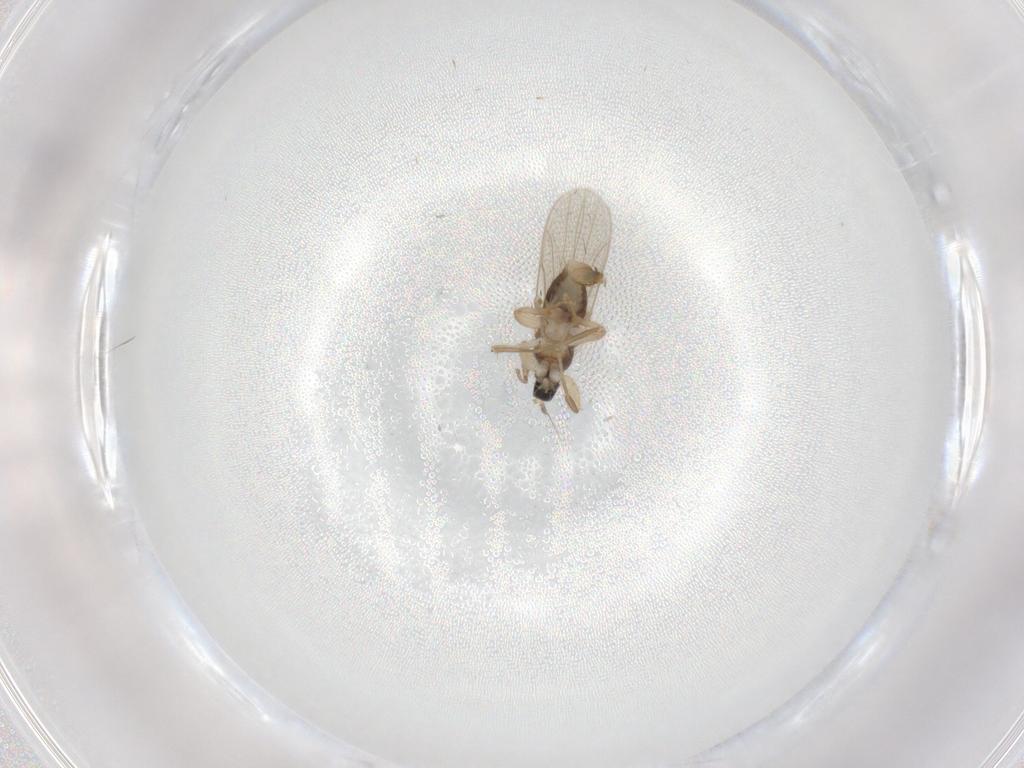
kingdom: Animalia
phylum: Arthropoda
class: Insecta
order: Diptera
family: Hybotidae
